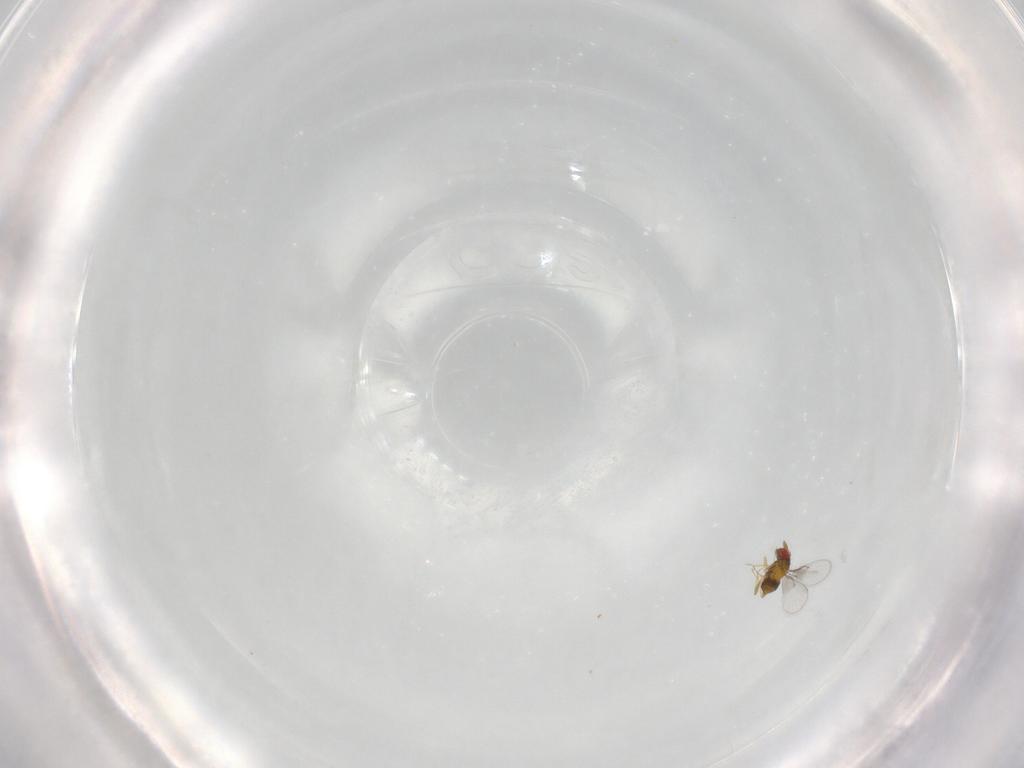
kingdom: Animalia
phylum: Arthropoda
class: Insecta
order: Hymenoptera
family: Trichogrammatidae
